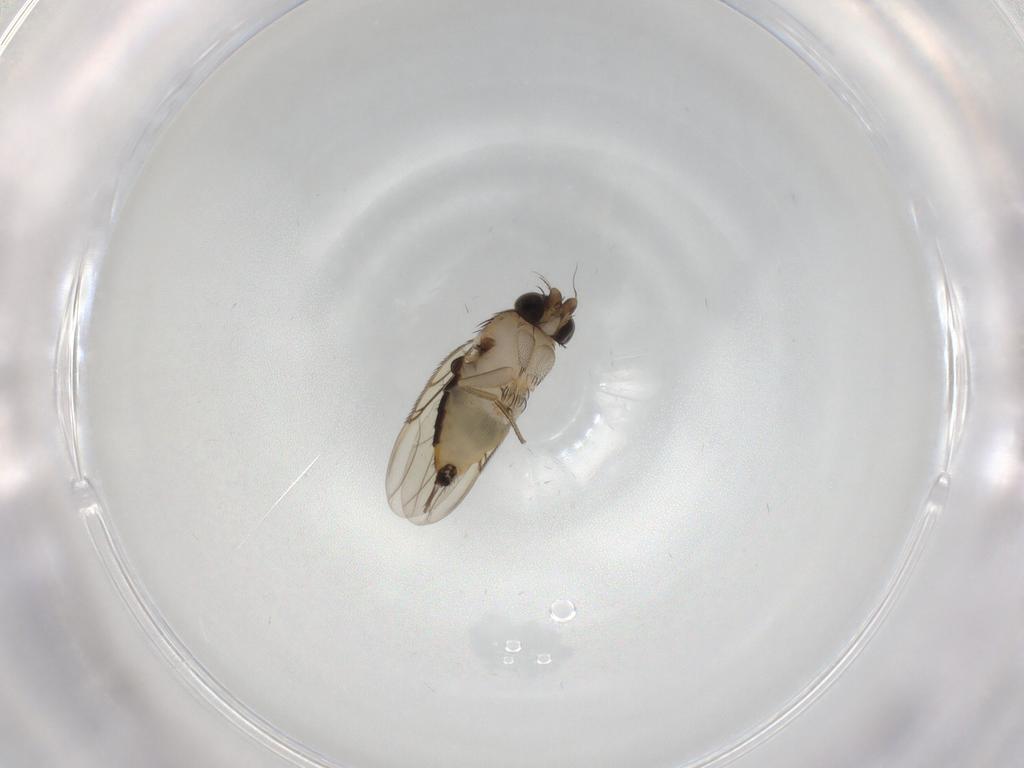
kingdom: Animalia
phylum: Arthropoda
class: Insecta
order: Diptera
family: Phoridae
